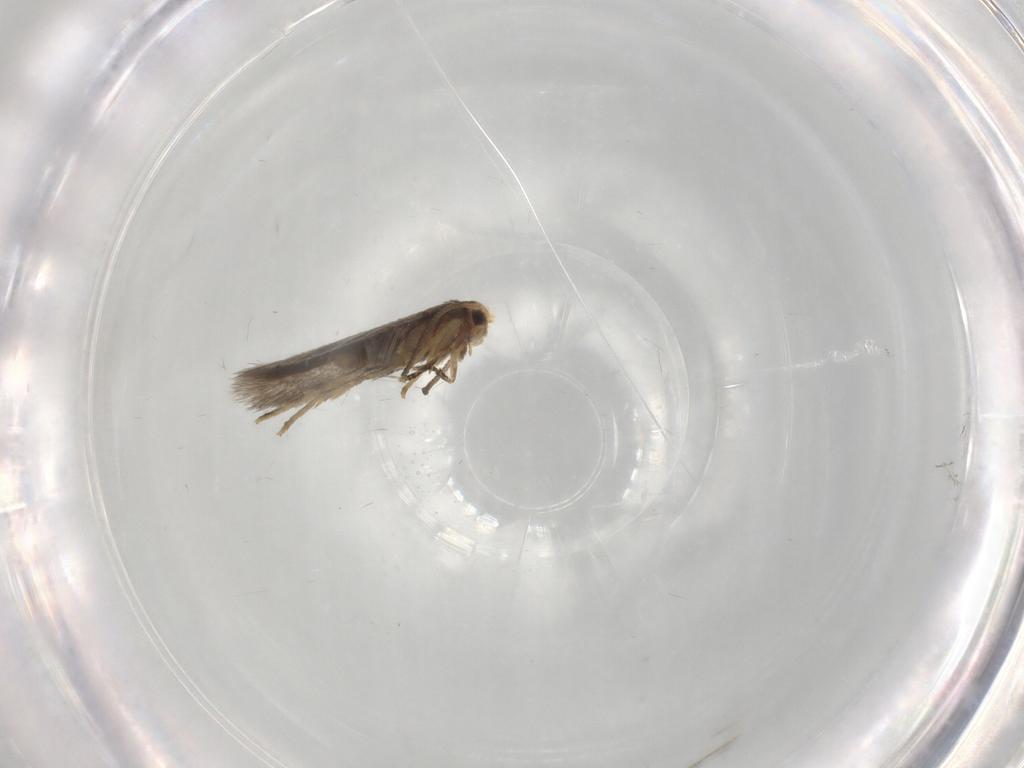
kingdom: Animalia
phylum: Arthropoda
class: Insecta
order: Lepidoptera
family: Nepticulidae
